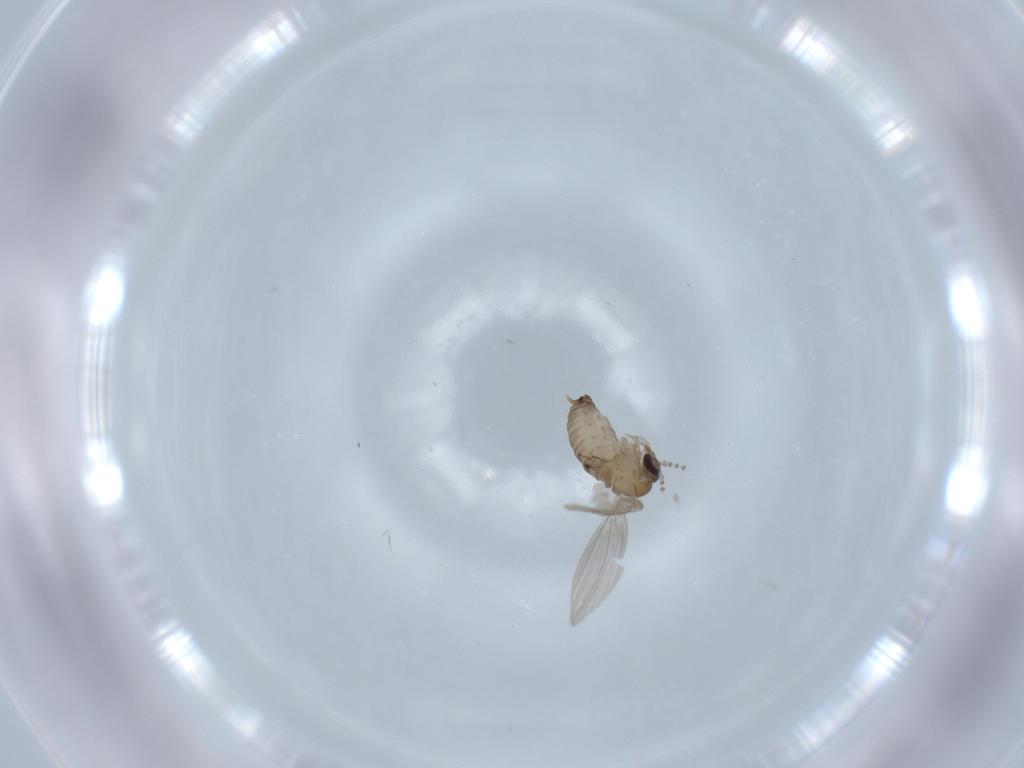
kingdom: Animalia
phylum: Arthropoda
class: Insecta
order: Diptera
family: Psychodidae
